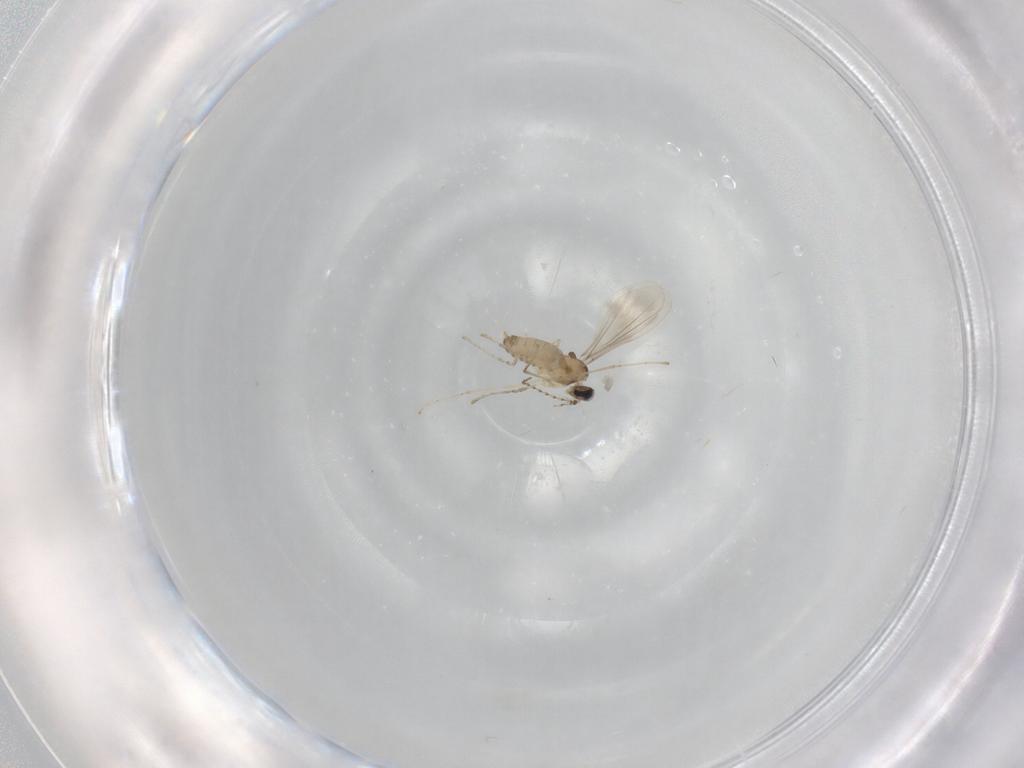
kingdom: Animalia
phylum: Arthropoda
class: Insecta
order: Diptera
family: Cecidomyiidae
